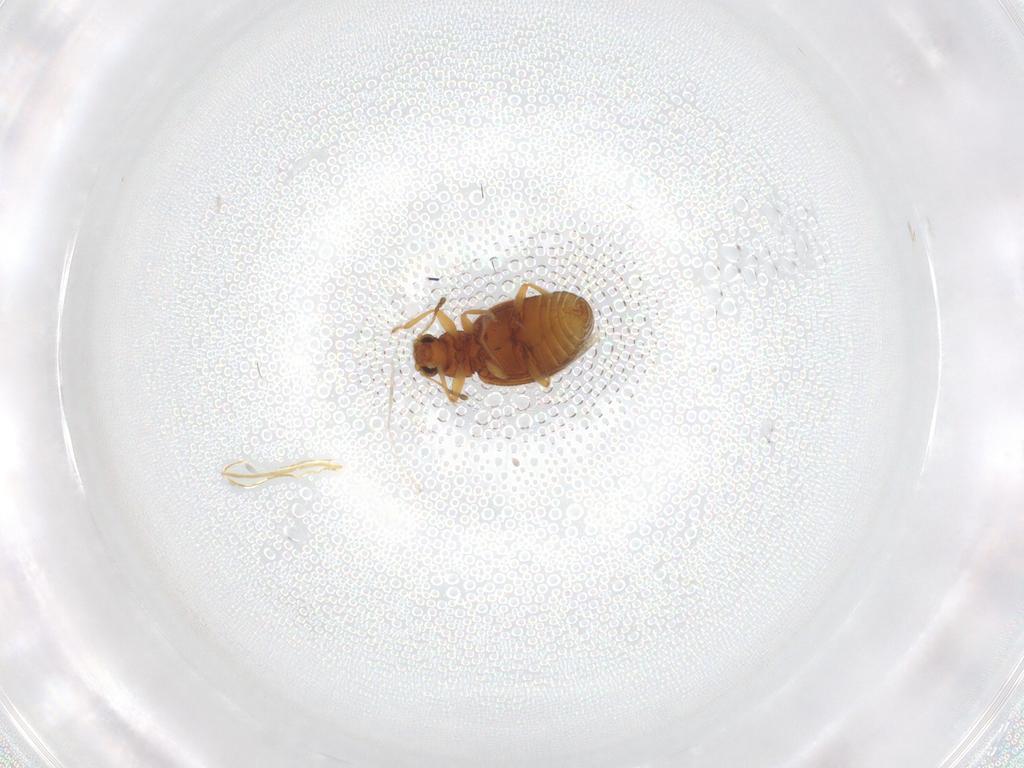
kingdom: Animalia
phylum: Arthropoda
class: Insecta
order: Coleoptera
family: Latridiidae
